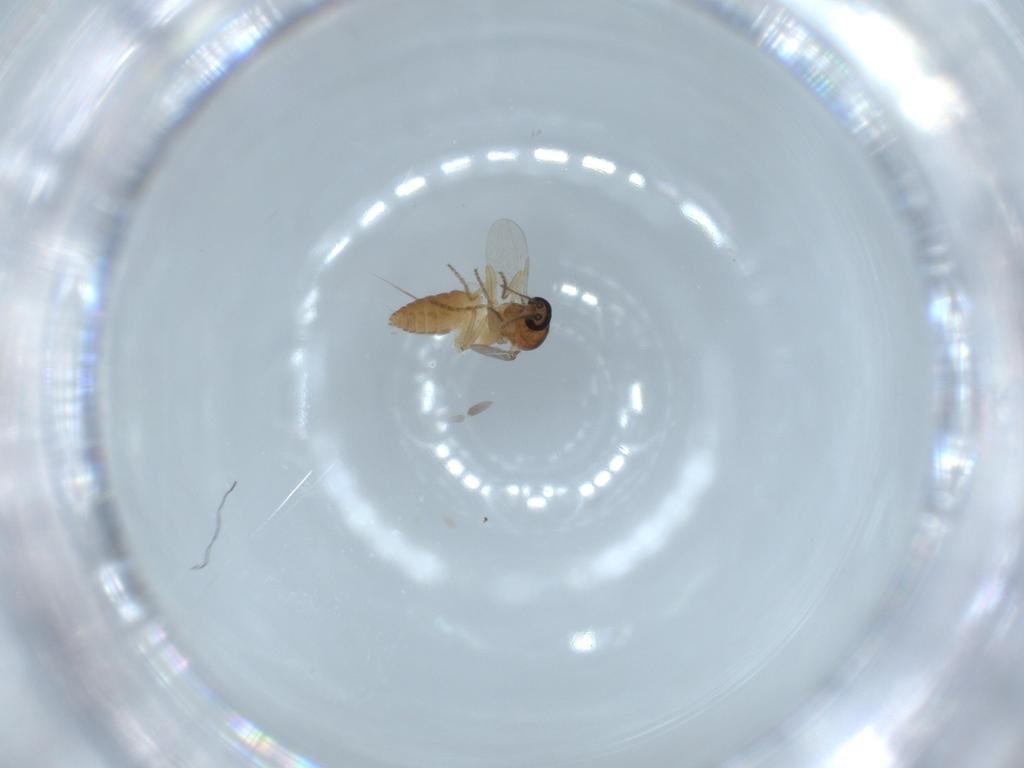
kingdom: Animalia
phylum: Arthropoda
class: Insecta
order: Diptera
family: Ceratopogonidae
